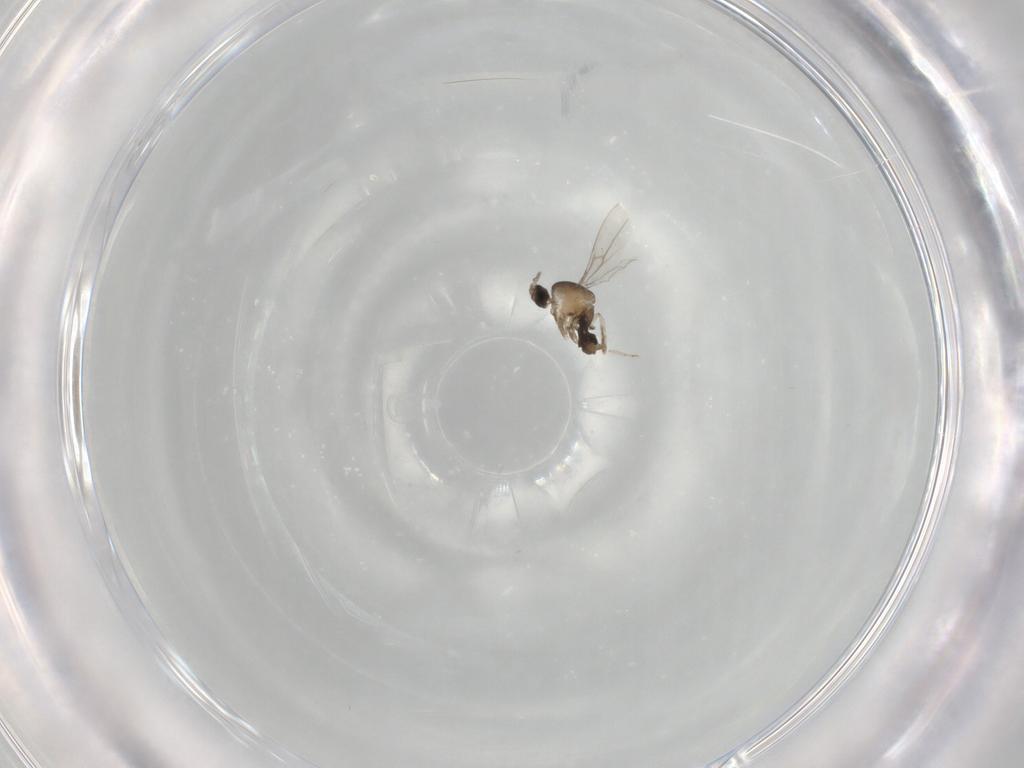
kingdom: Animalia
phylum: Arthropoda
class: Insecta
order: Diptera
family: Cecidomyiidae
